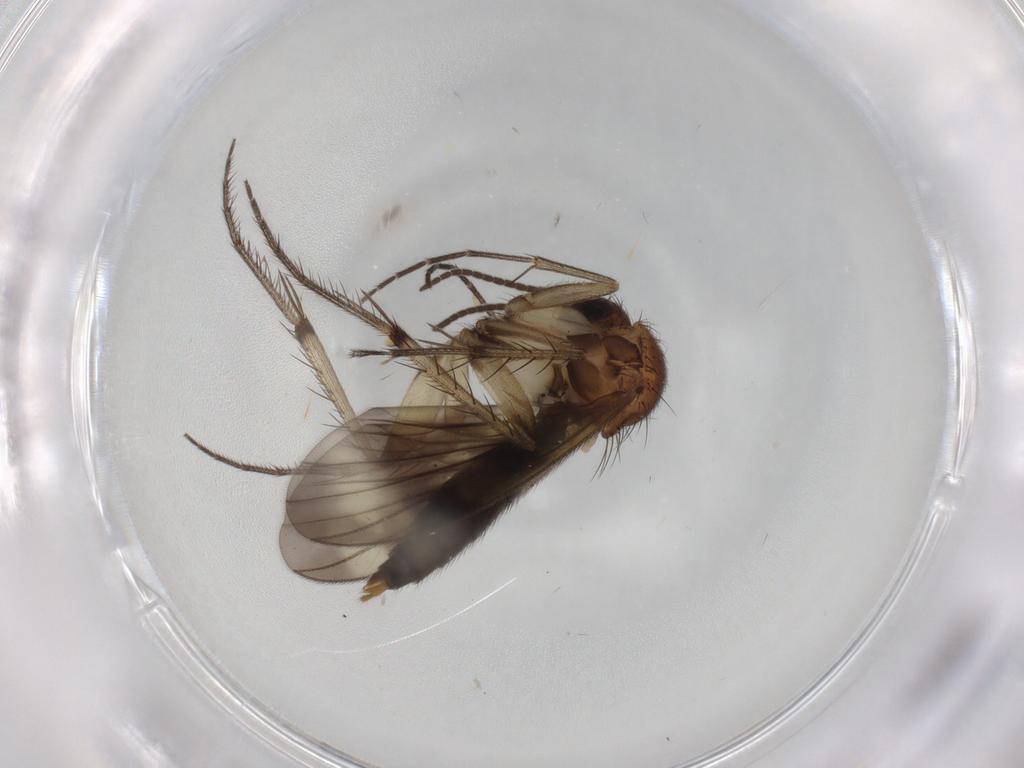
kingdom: Animalia
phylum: Arthropoda
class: Insecta
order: Diptera
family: Mycetophilidae
